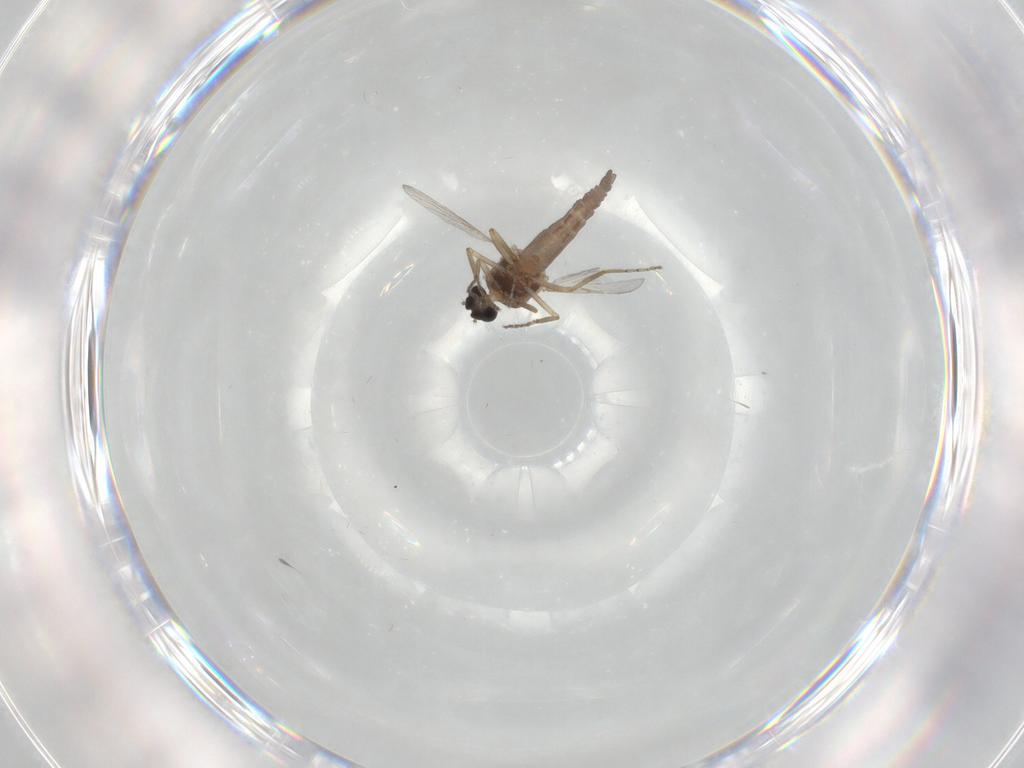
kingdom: Animalia
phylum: Arthropoda
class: Insecta
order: Diptera
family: Ceratopogonidae
